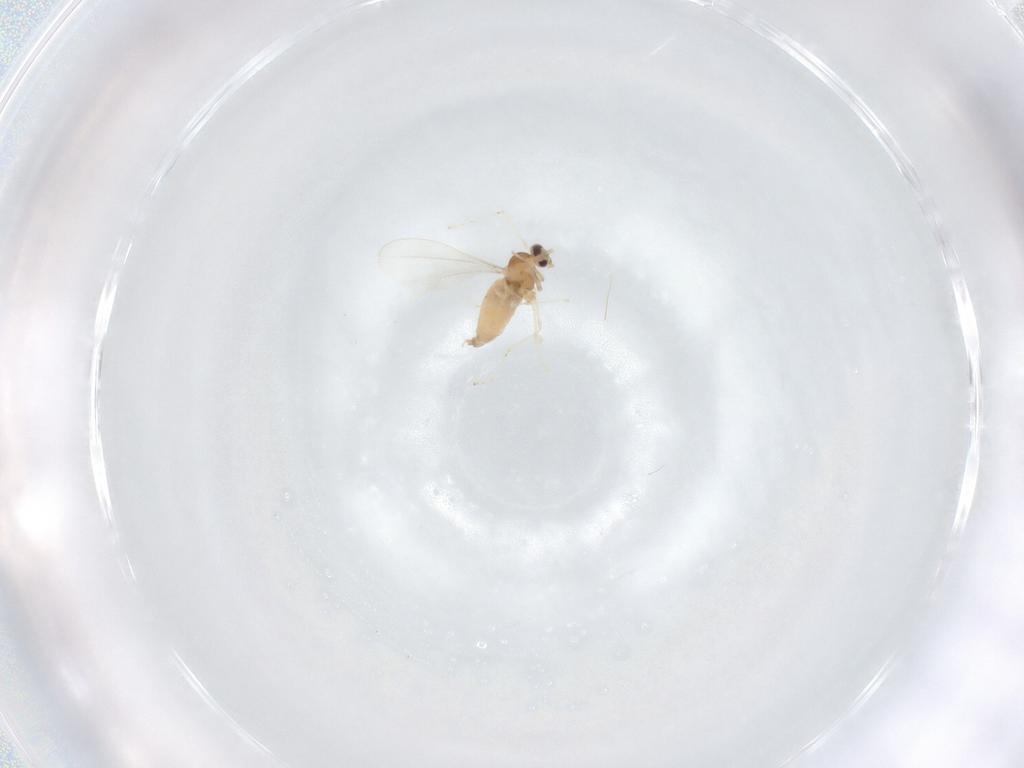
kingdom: Animalia
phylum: Arthropoda
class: Insecta
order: Diptera
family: Cecidomyiidae
